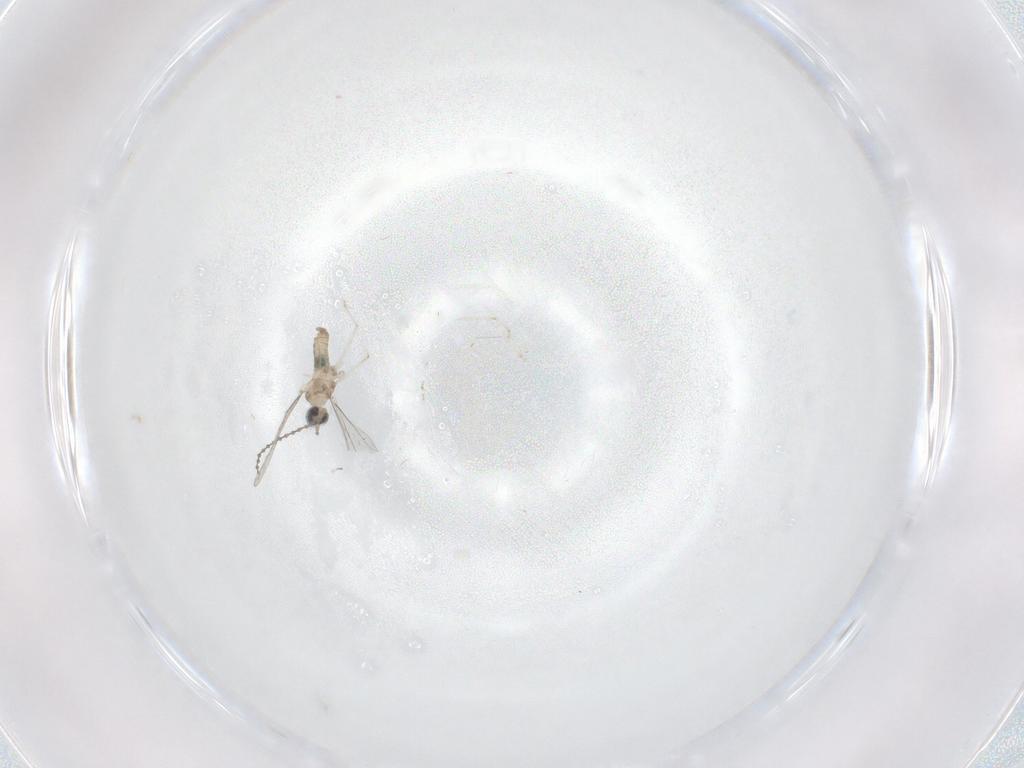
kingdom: Animalia
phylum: Arthropoda
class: Insecta
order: Diptera
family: Cecidomyiidae
